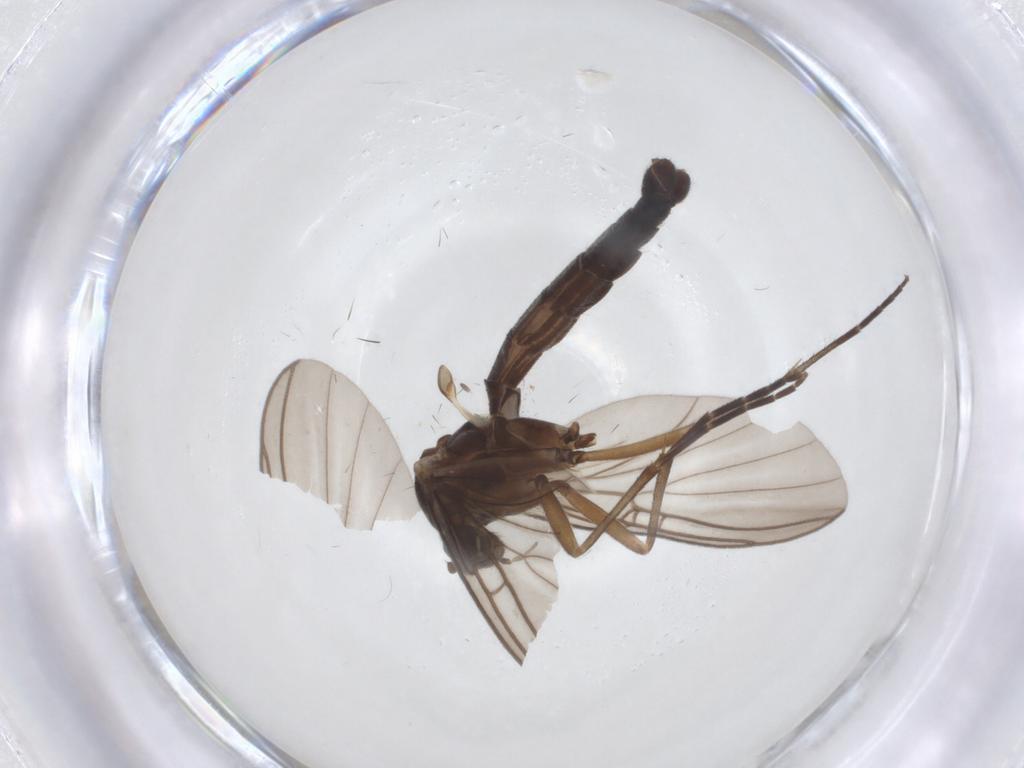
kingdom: Animalia
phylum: Arthropoda
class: Insecta
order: Diptera
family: Mycetophilidae
